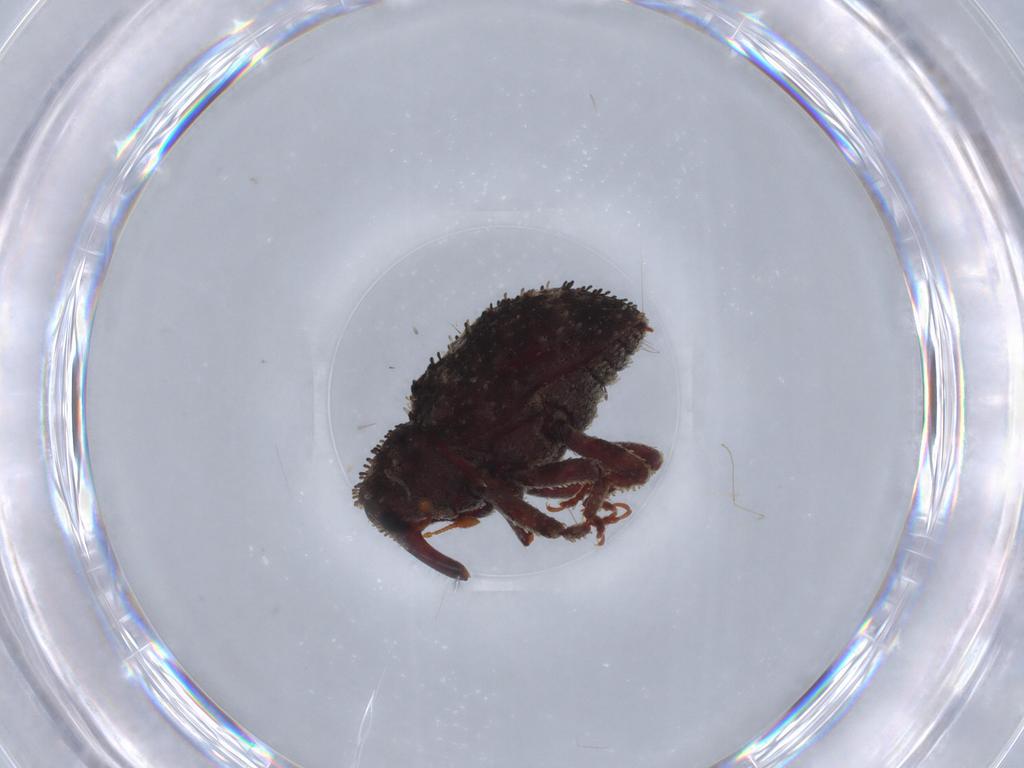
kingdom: Animalia
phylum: Arthropoda
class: Insecta
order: Coleoptera
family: Curculionidae
